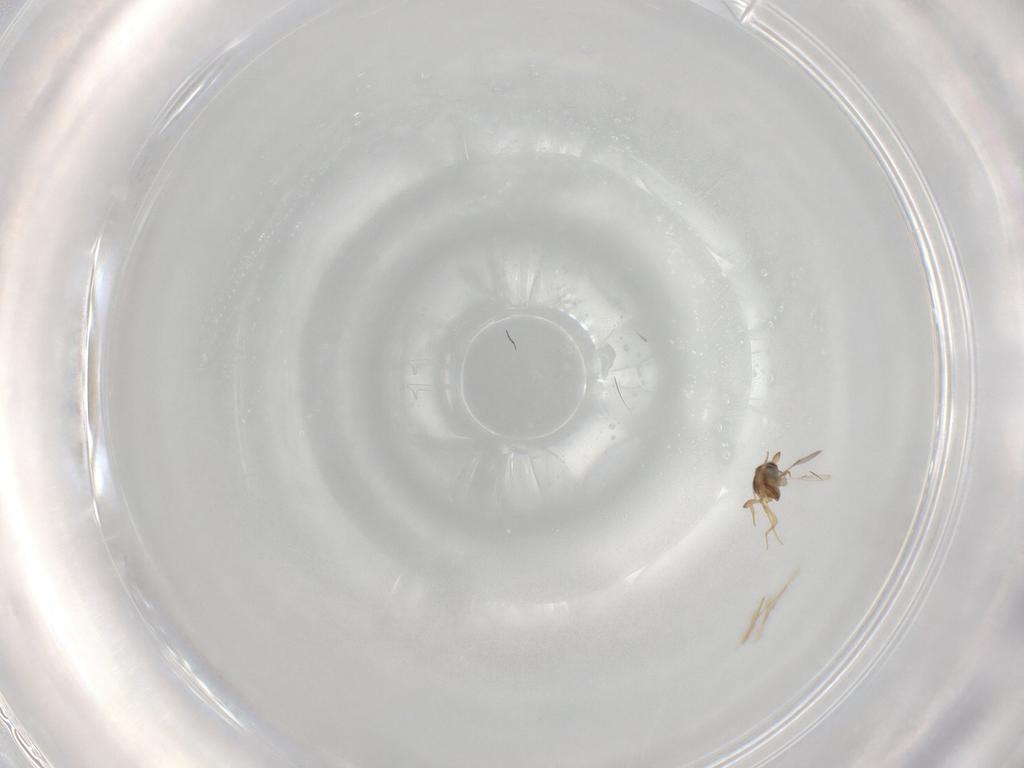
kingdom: Animalia
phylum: Arthropoda
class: Insecta
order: Hymenoptera
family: Scelionidae
